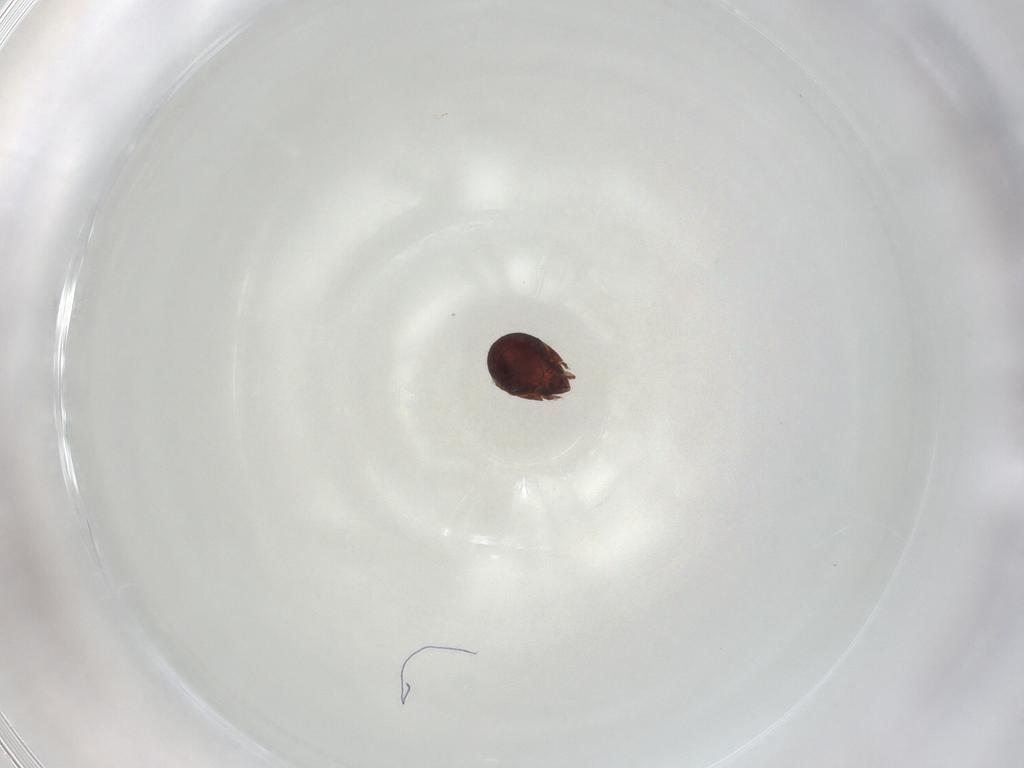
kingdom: Animalia
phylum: Arthropoda
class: Arachnida
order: Sarcoptiformes
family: Humerobatidae
